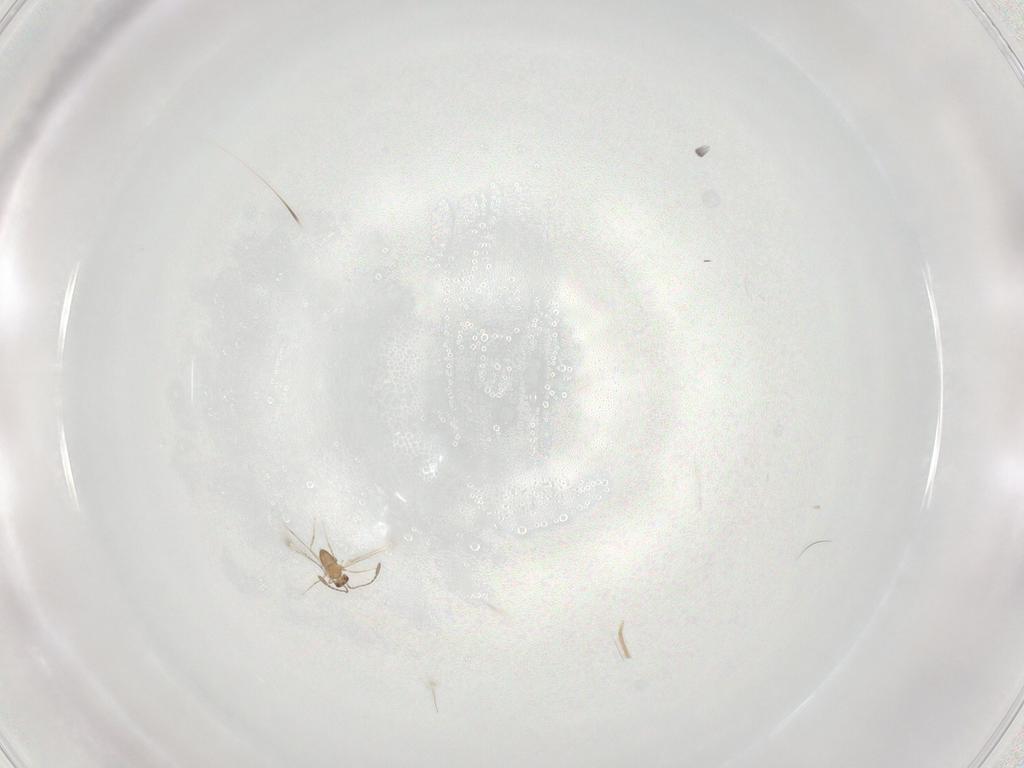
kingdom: Animalia
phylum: Arthropoda
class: Insecta
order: Hymenoptera
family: Mymaridae
